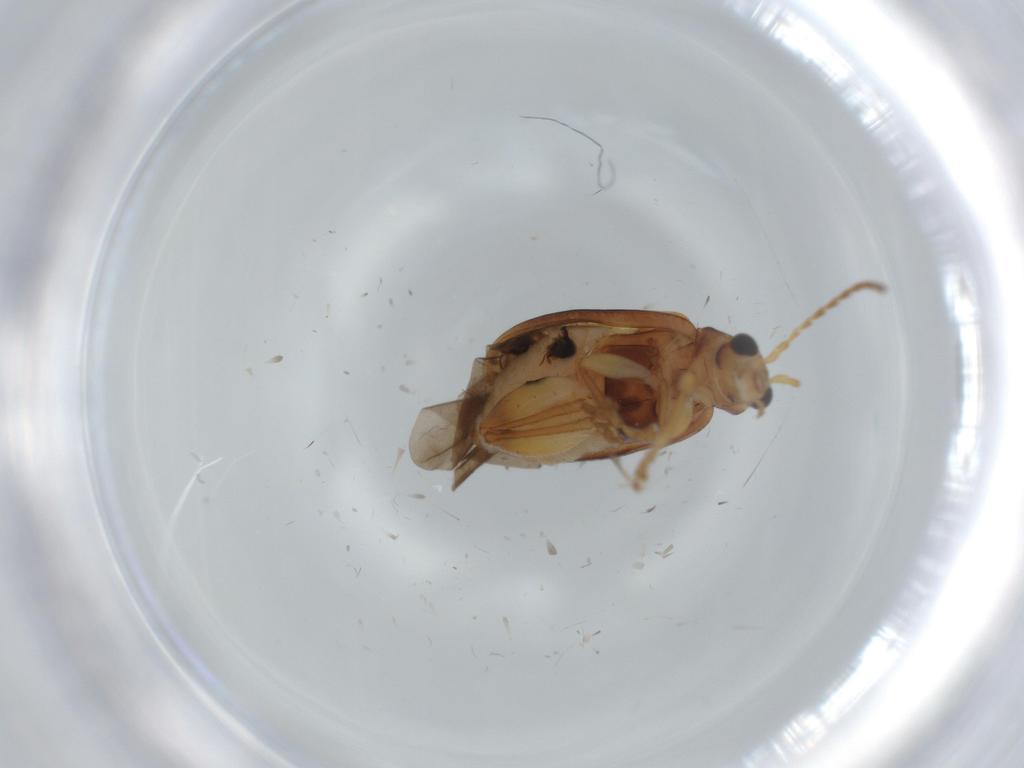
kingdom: Animalia
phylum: Arthropoda
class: Insecta
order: Coleoptera
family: Chrysomelidae
